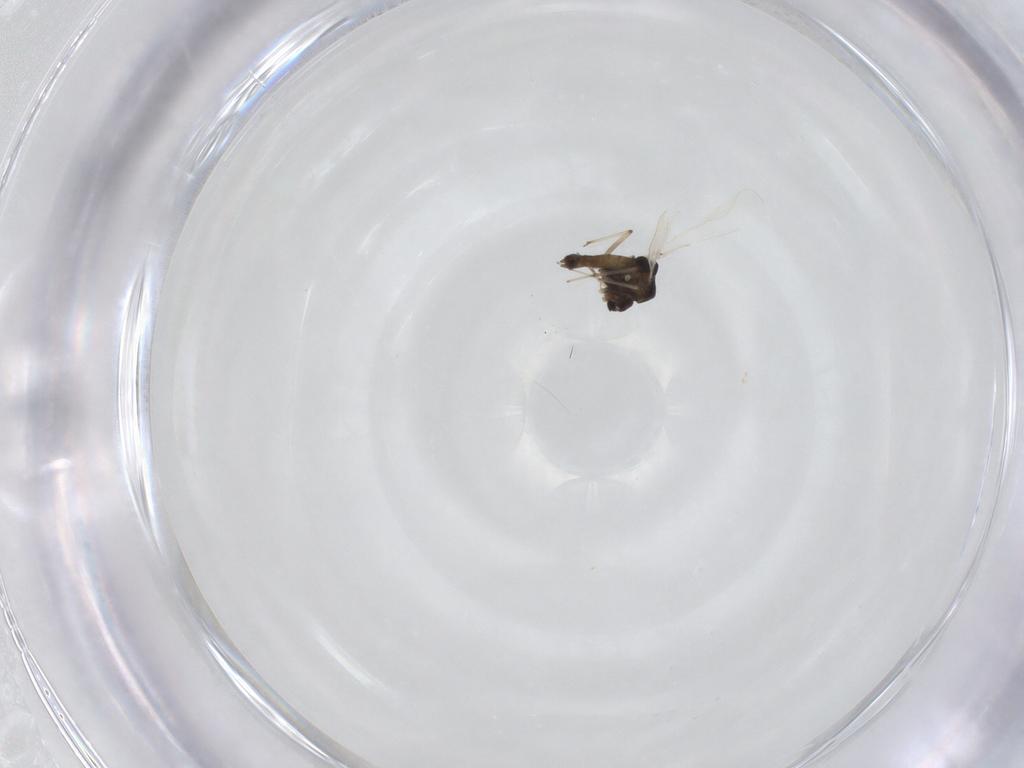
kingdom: Animalia
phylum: Arthropoda
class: Insecta
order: Diptera
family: Chironomidae
